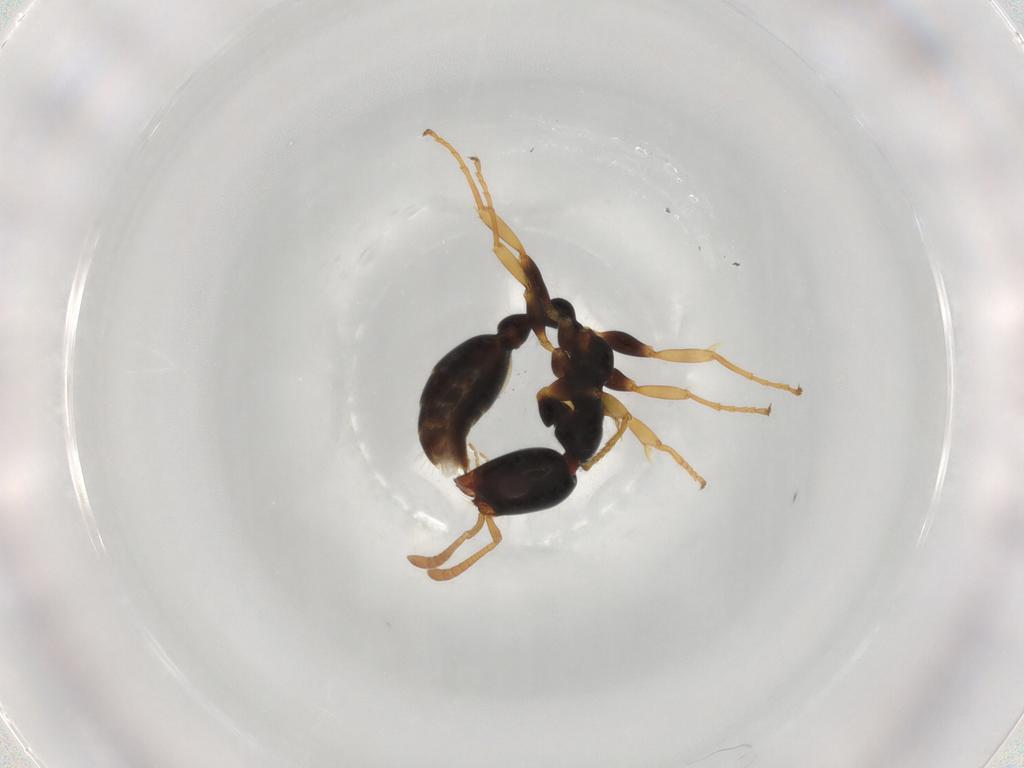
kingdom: Animalia
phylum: Arthropoda
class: Insecta
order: Hymenoptera
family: Formicidae
